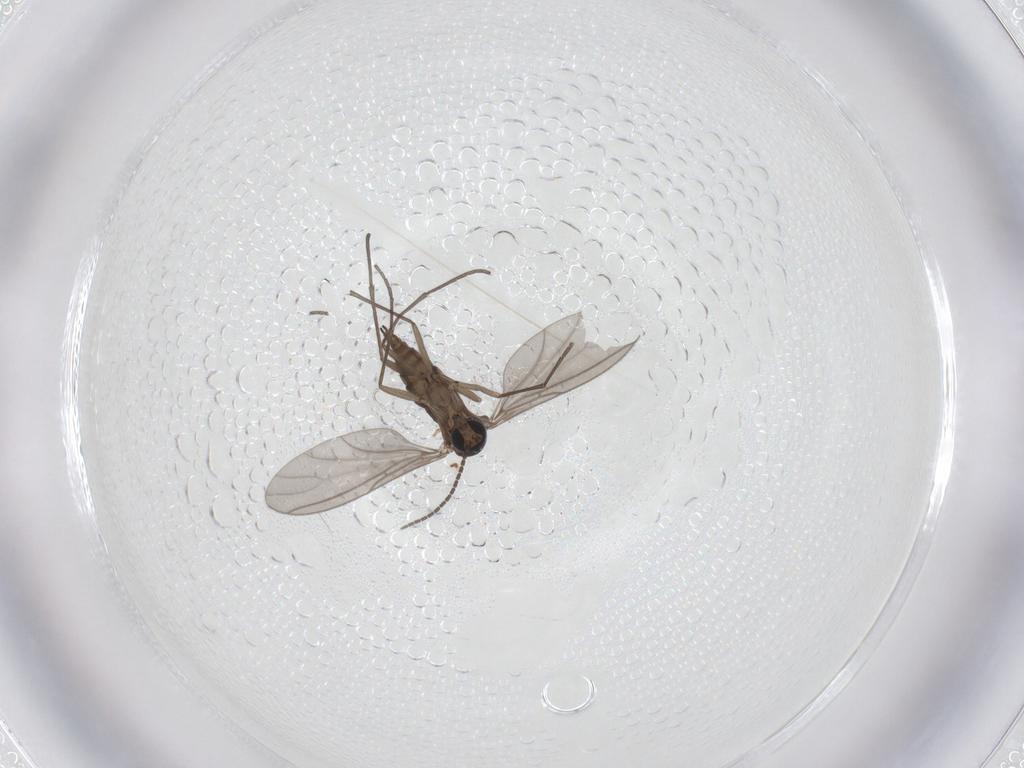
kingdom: Animalia
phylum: Arthropoda
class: Insecta
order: Diptera
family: Sciaridae
